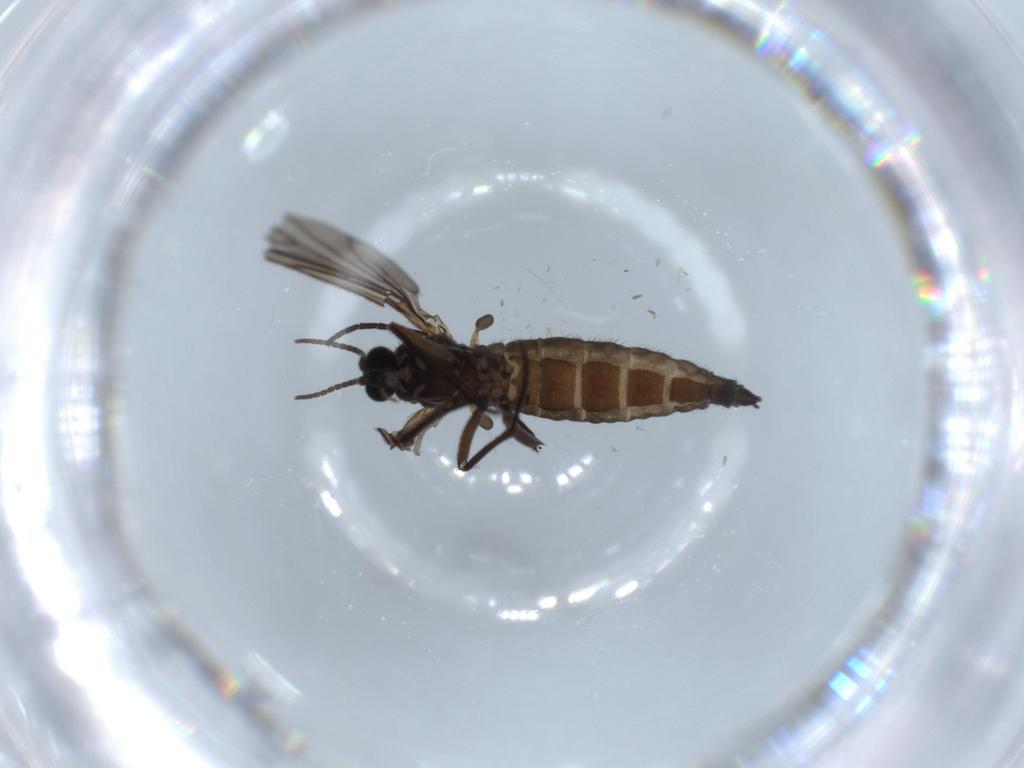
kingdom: Animalia
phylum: Arthropoda
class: Insecta
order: Diptera
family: Sciaridae
